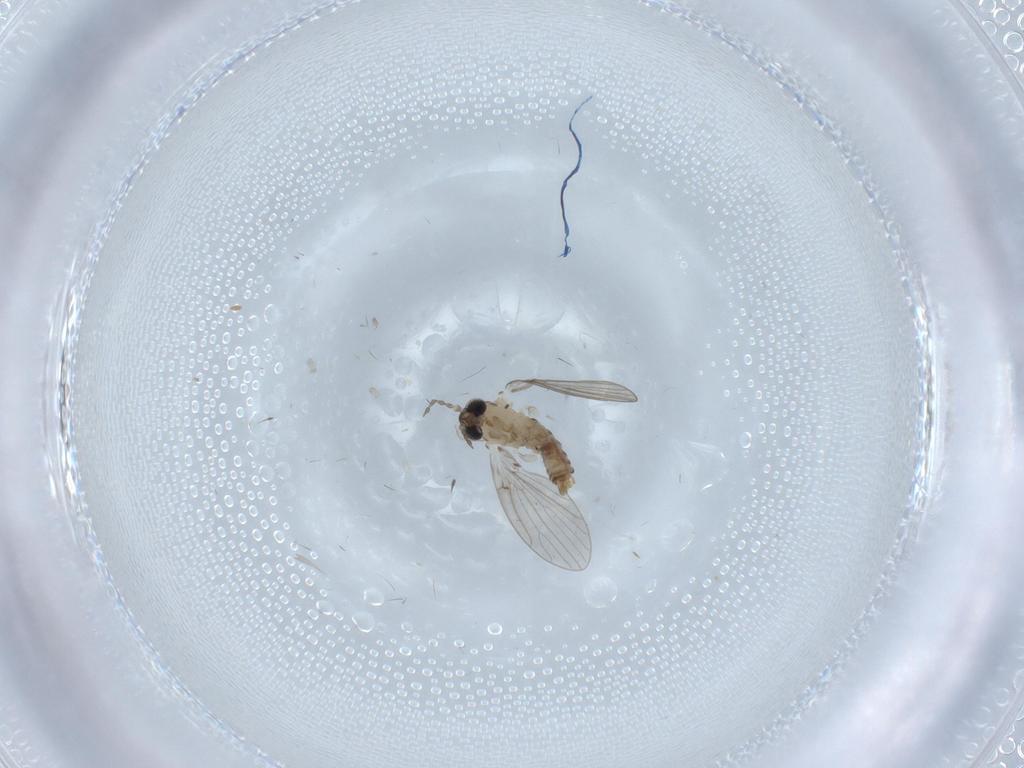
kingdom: Animalia
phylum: Arthropoda
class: Insecta
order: Diptera
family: Sciaridae
